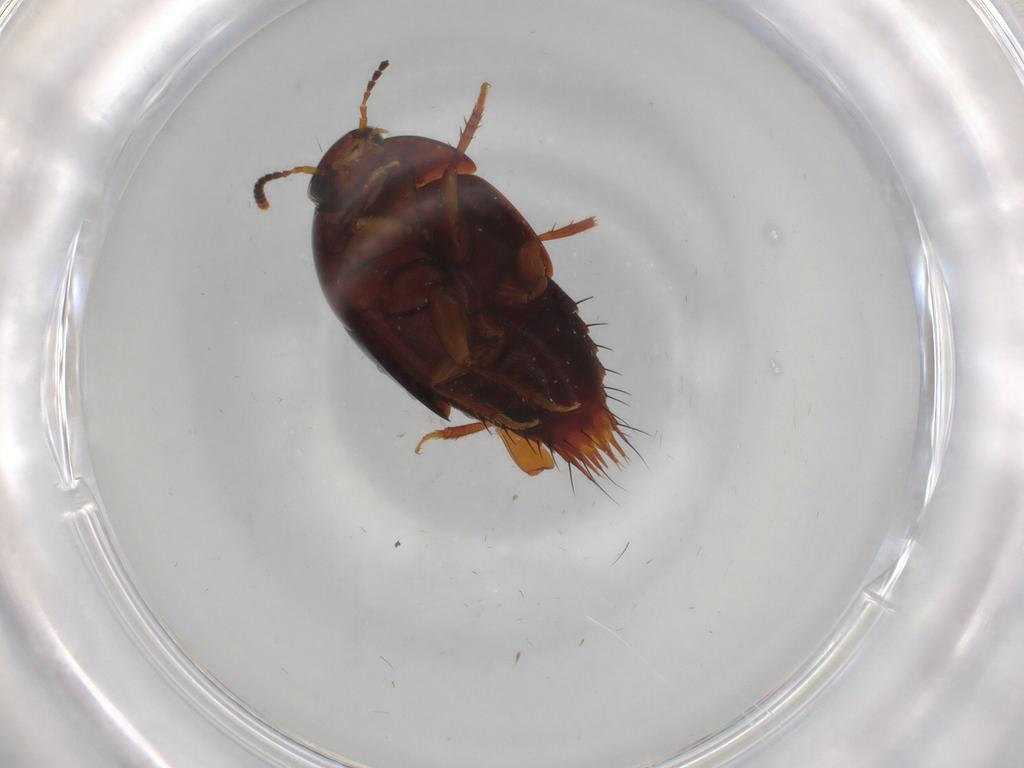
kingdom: Animalia
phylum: Arthropoda
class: Insecta
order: Coleoptera
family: Staphylinidae
